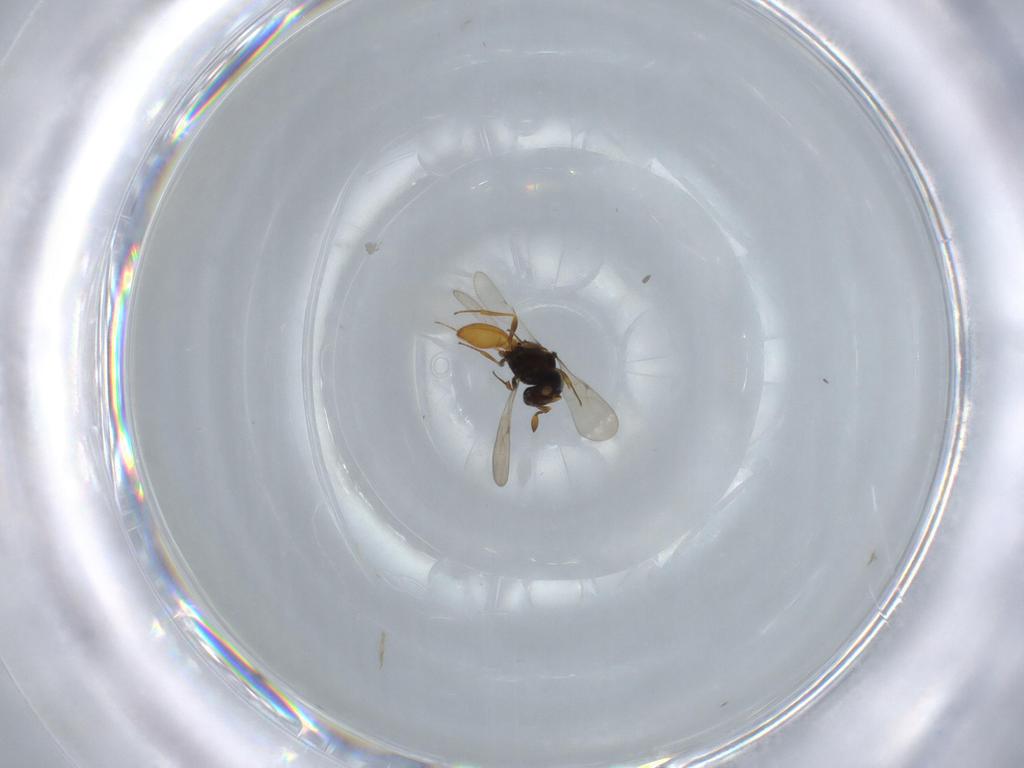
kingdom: Animalia
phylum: Arthropoda
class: Insecta
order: Hymenoptera
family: Scelionidae
